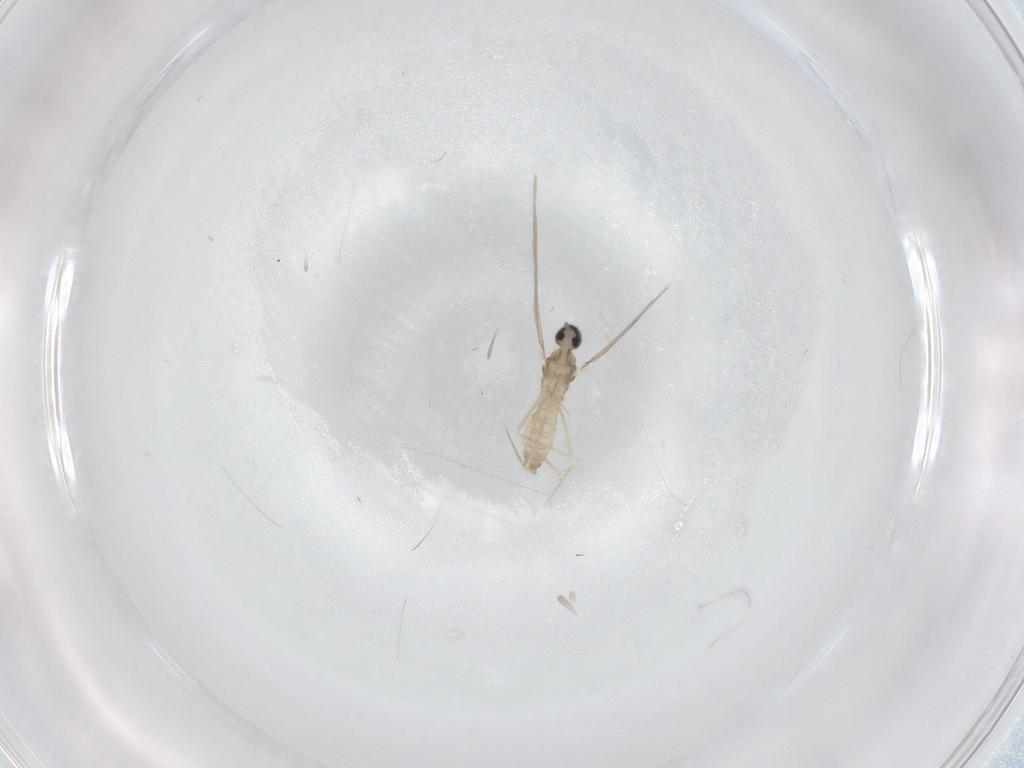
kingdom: Animalia
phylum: Arthropoda
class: Insecta
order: Diptera
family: Cecidomyiidae
